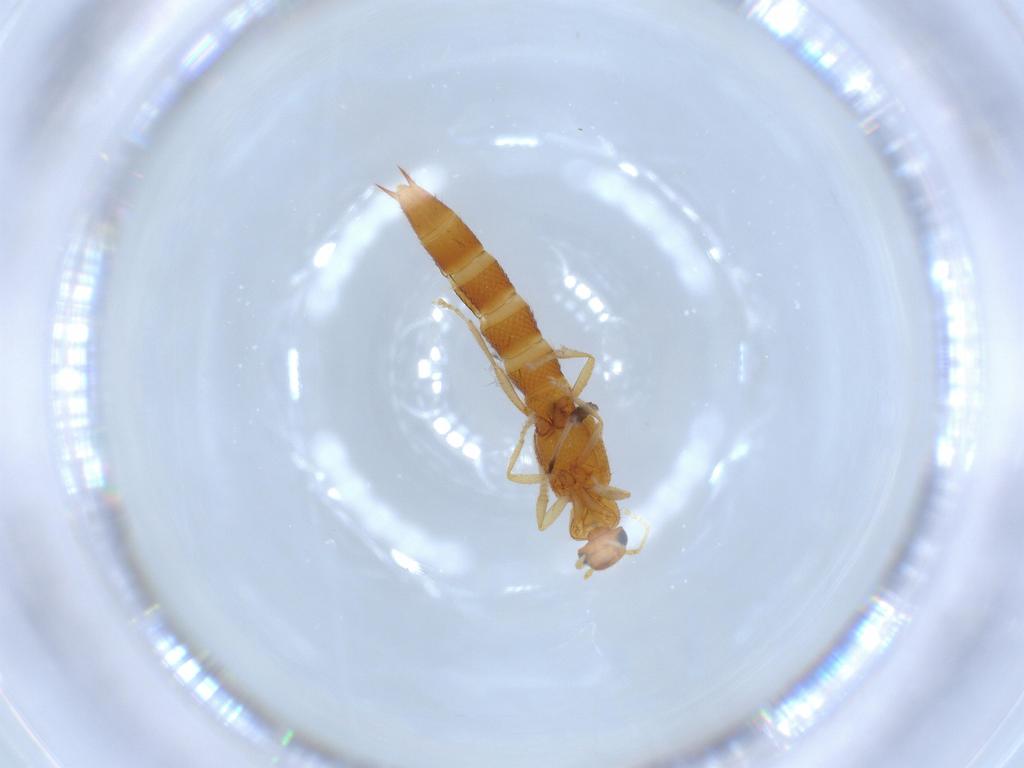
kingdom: Animalia
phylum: Arthropoda
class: Insecta
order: Coleoptera
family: Staphylinidae
